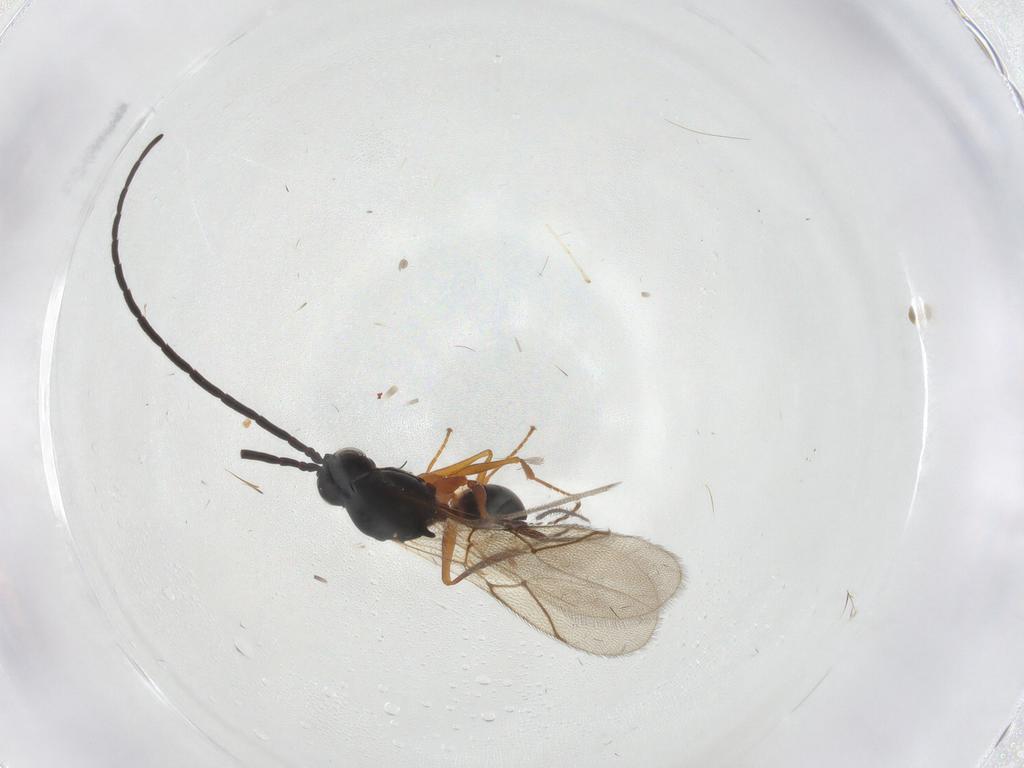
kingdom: Animalia
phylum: Arthropoda
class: Insecta
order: Hymenoptera
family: Figitidae
